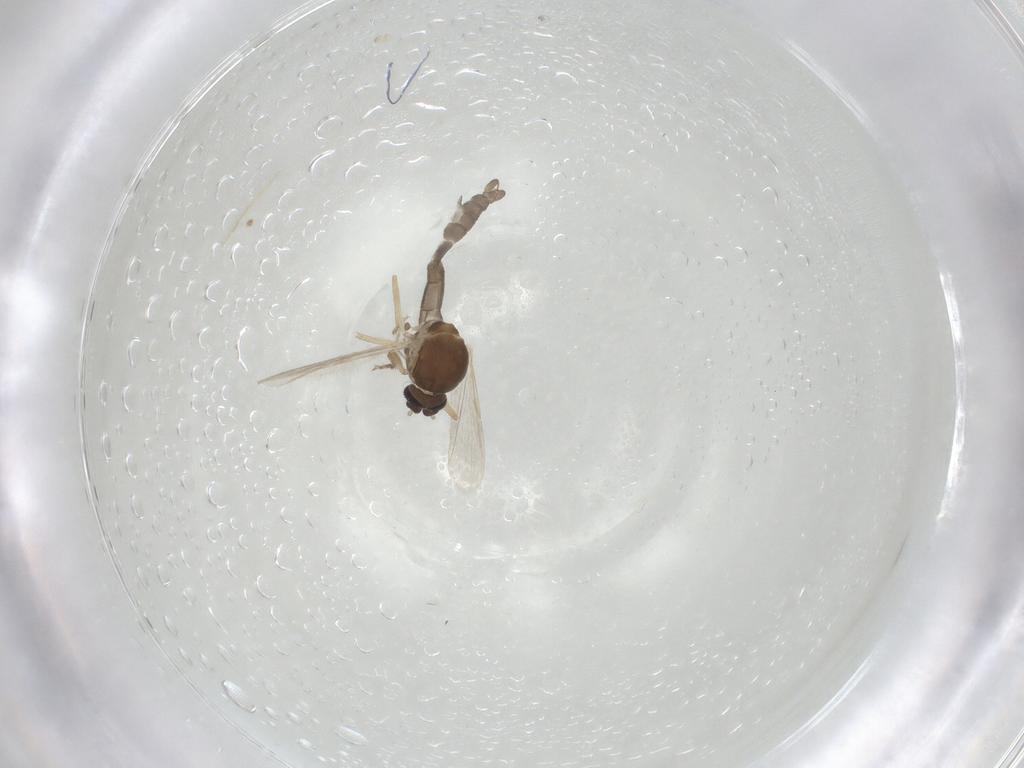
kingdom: Animalia
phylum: Arthropoda
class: Insecta
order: Diptera
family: Ceratopogonidae
